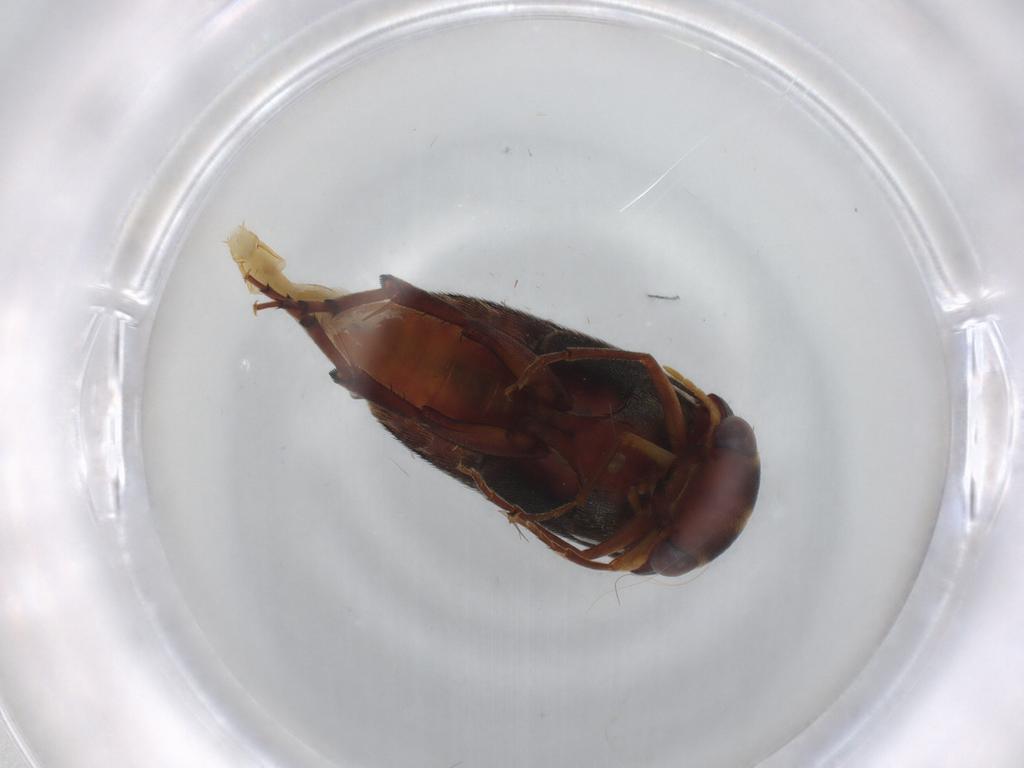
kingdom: Animalia
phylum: Arthropoda
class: Insecta
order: Coleoptera
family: Mordellidae
